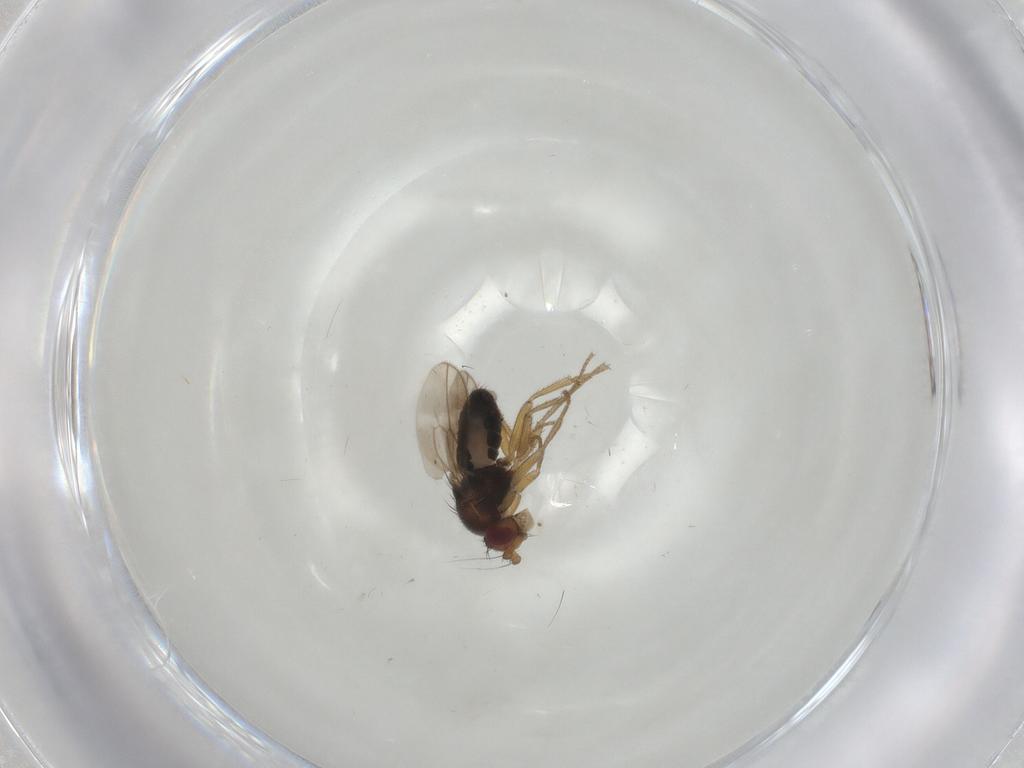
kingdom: Animalia
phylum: Arthropoda
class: Insecta
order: Diptera
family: Sphaeroceridae
